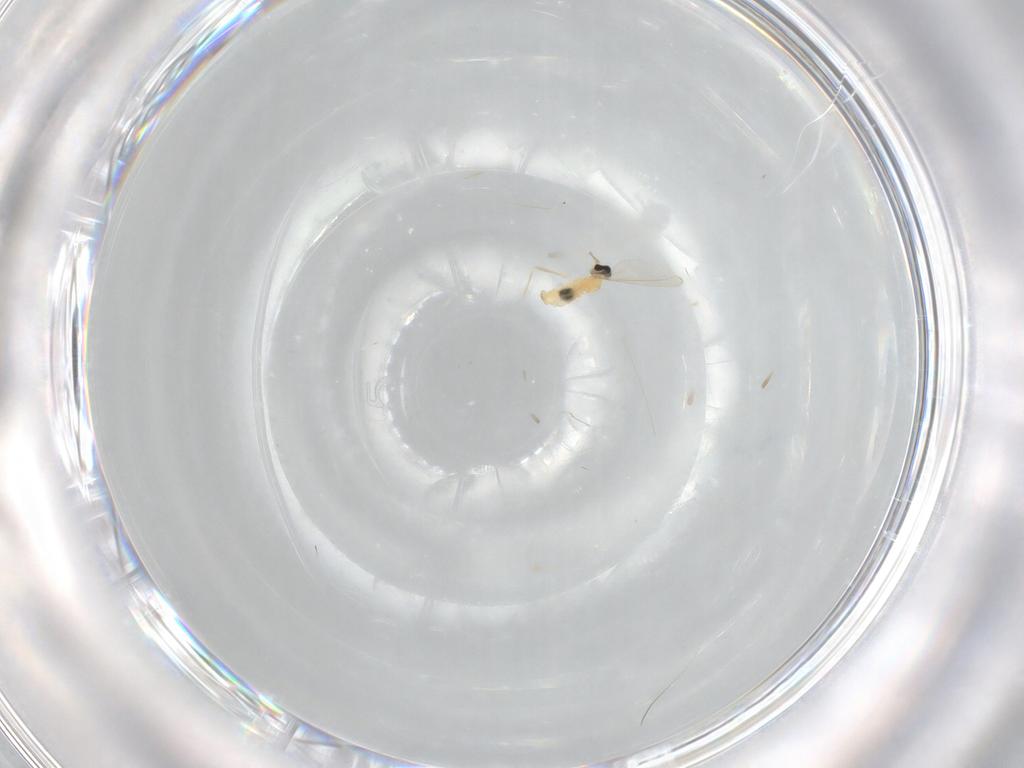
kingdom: Animalia
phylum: Arthropoda
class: Insecta
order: Diptera
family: Cecidomyiidae
